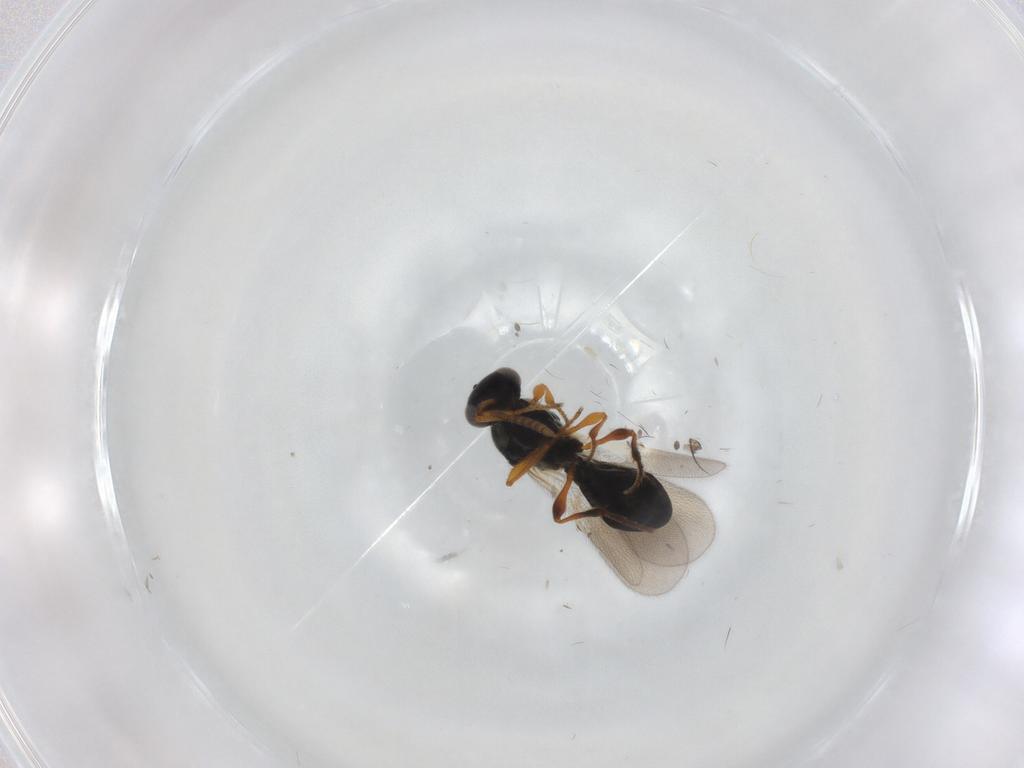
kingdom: Animalia
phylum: Arthropoda
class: Insecta
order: Hymenoptera
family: Platygastridae
